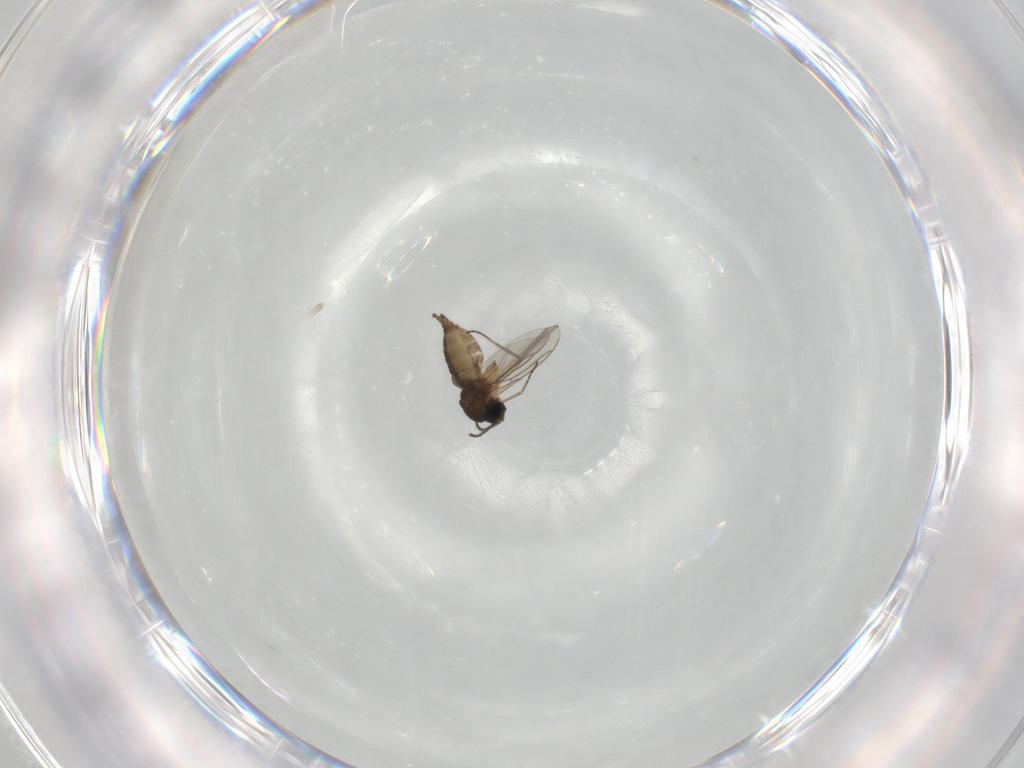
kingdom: Animalia
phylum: Arthropoda
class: Insecta
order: Diptera
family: Sciaridae
